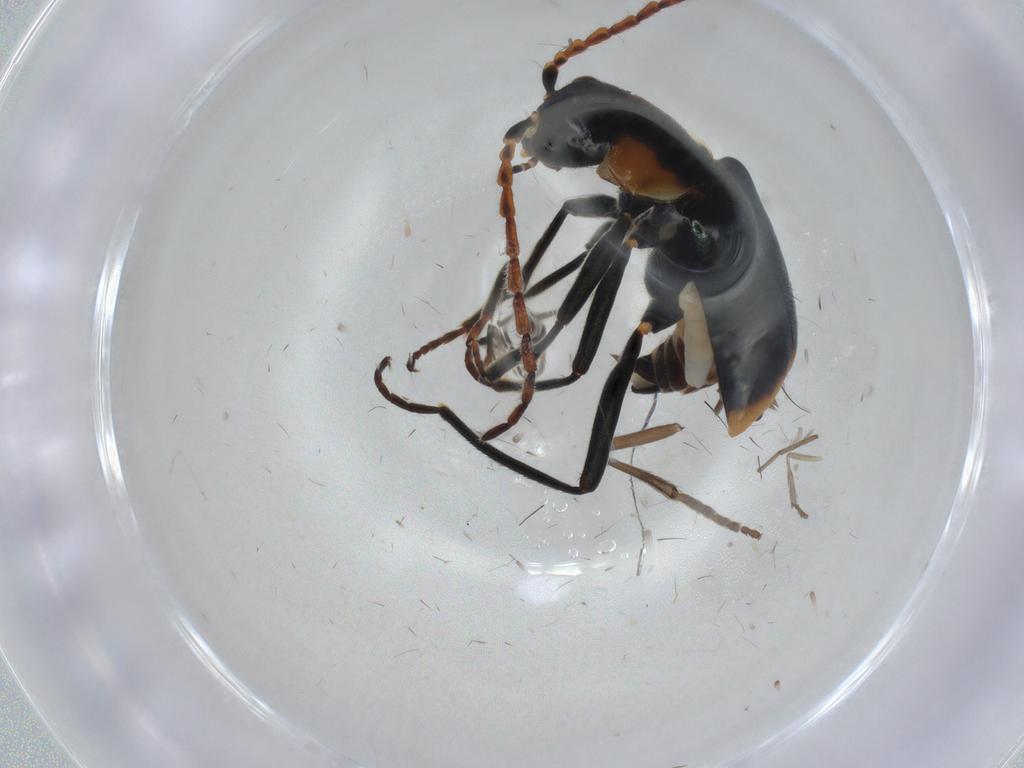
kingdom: Animalia
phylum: Arthropoda
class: Insecta
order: Coleoptera
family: Melyridae
